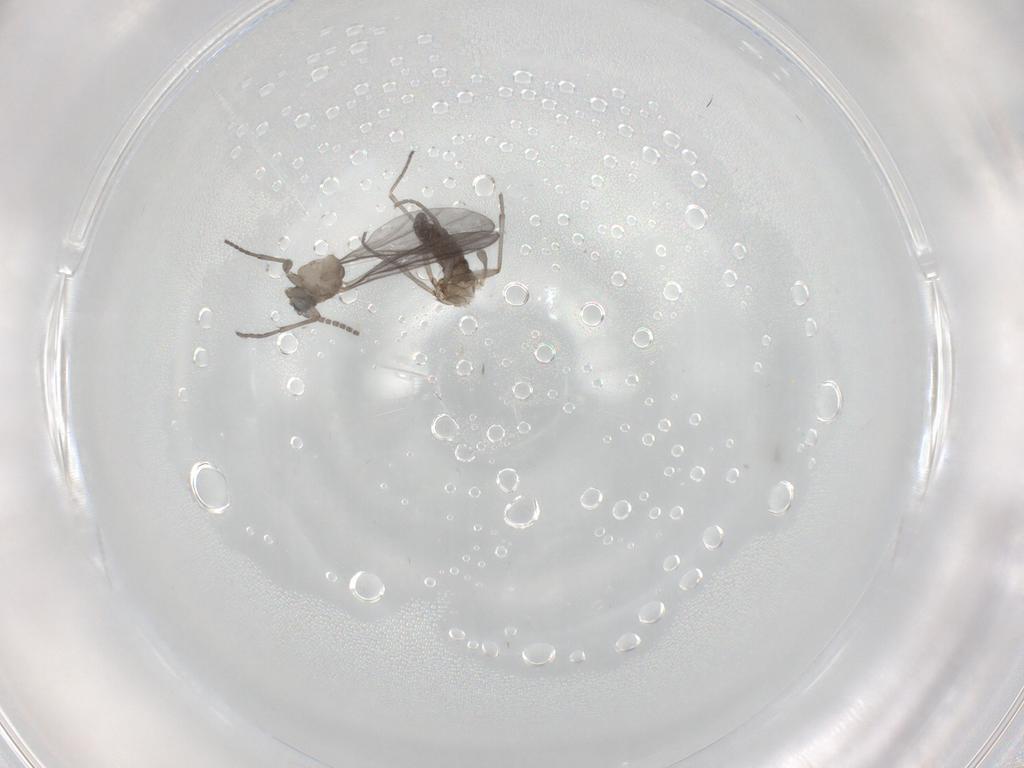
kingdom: Animalia
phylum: Arthropoda
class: Insecta
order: Diptera
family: Sciaridae
